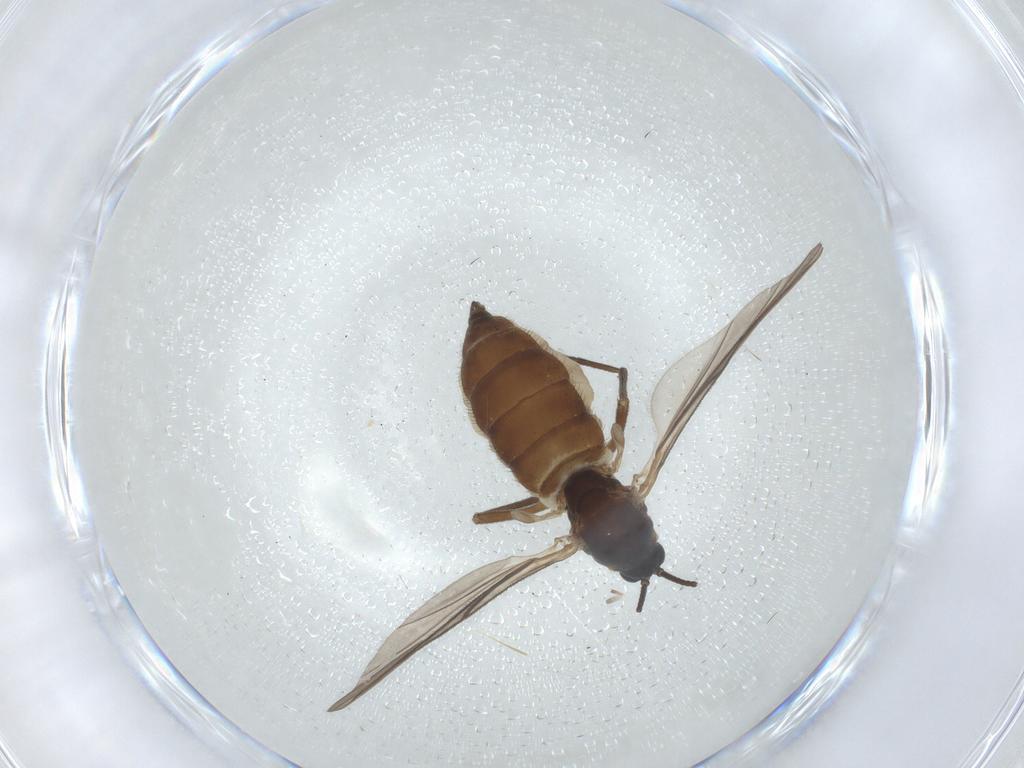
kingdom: Animalia
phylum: Arthropoda
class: Insecta
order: Diptera
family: Sciaridae
